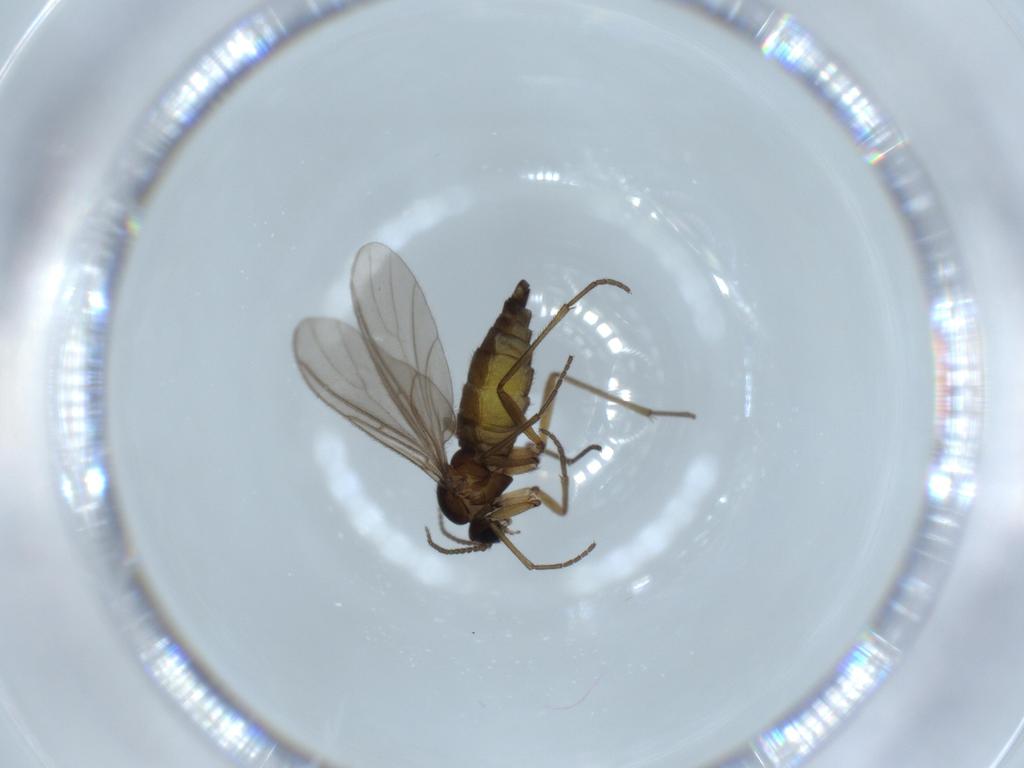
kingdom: Animalia
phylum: Arthropoda
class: Insecta
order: Diptera
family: Sciaridae
